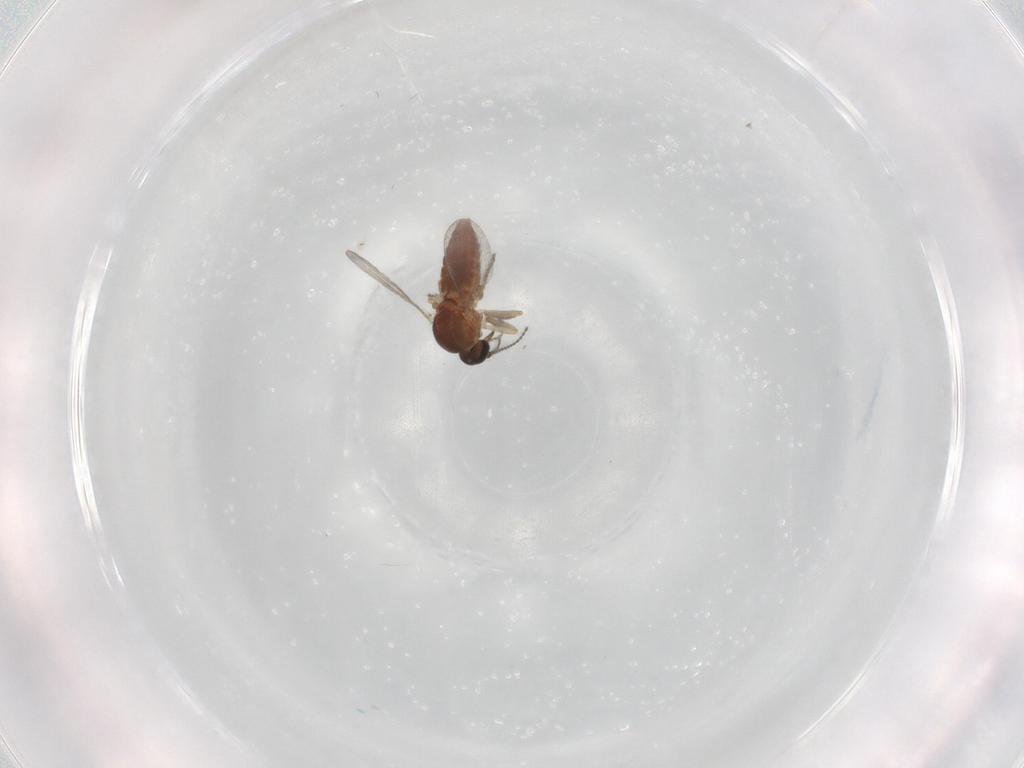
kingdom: Animalia
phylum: Arthropoda
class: Insecta
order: Diptera
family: Ceratopogonidae
